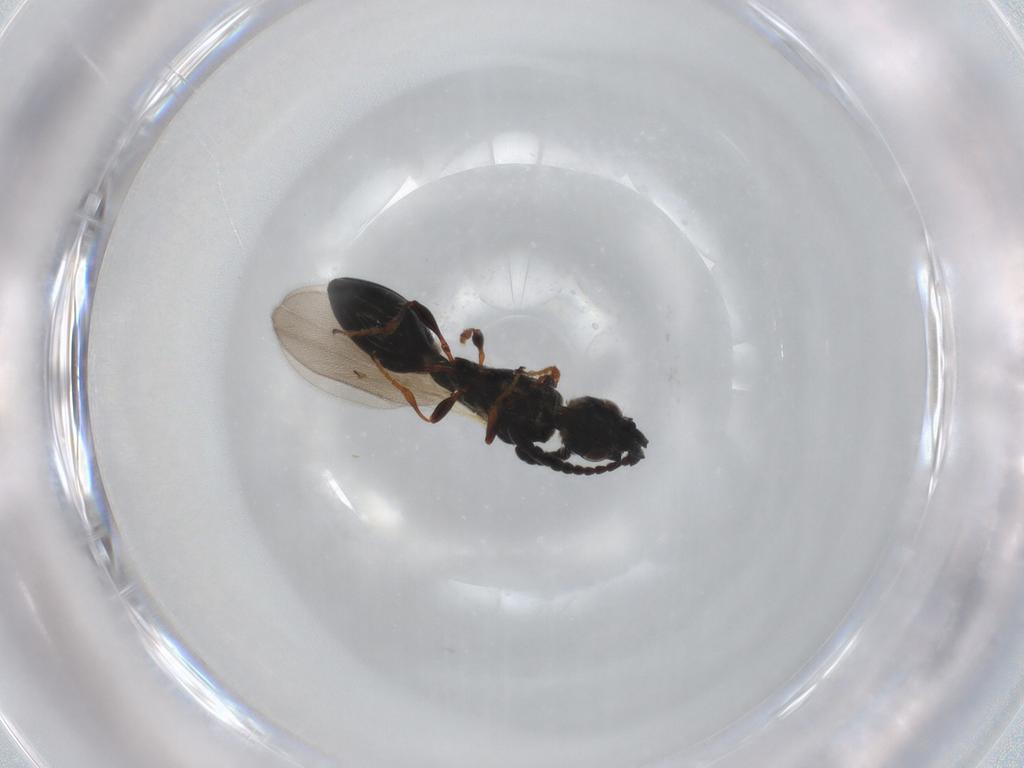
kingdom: Animalia
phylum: Arthropoda
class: Insecta
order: Hymenoptera
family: Diapriidae
